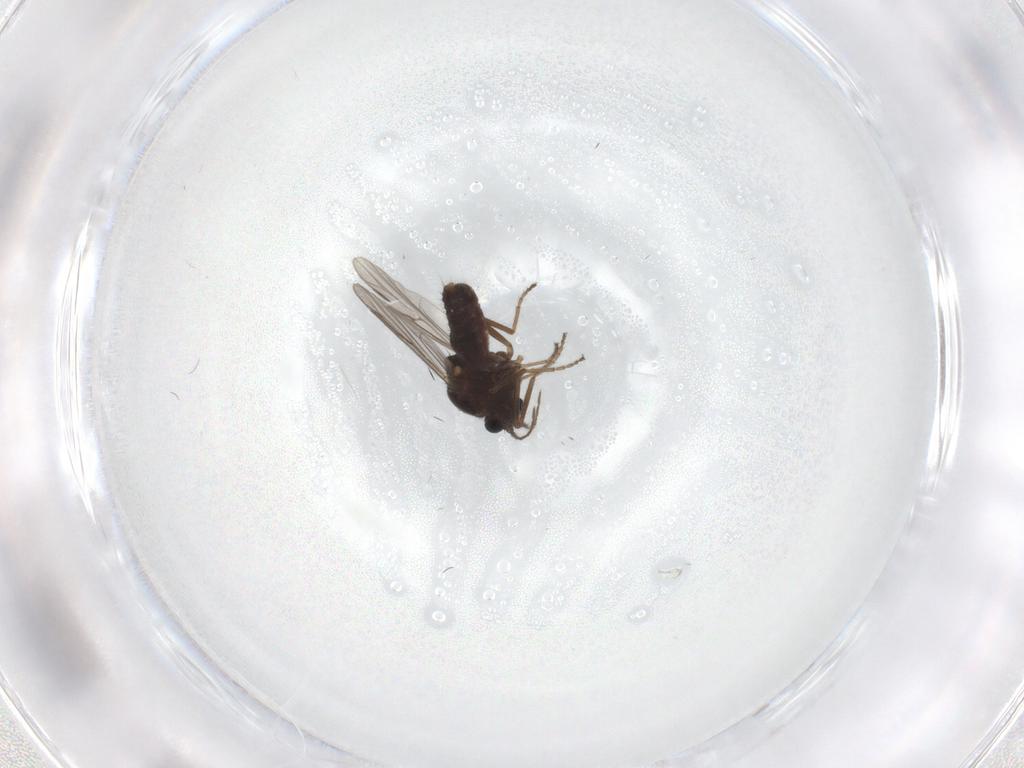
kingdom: Animalia
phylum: Arthropoda
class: Insecta
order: Diptera
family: Ceratopogonidae
